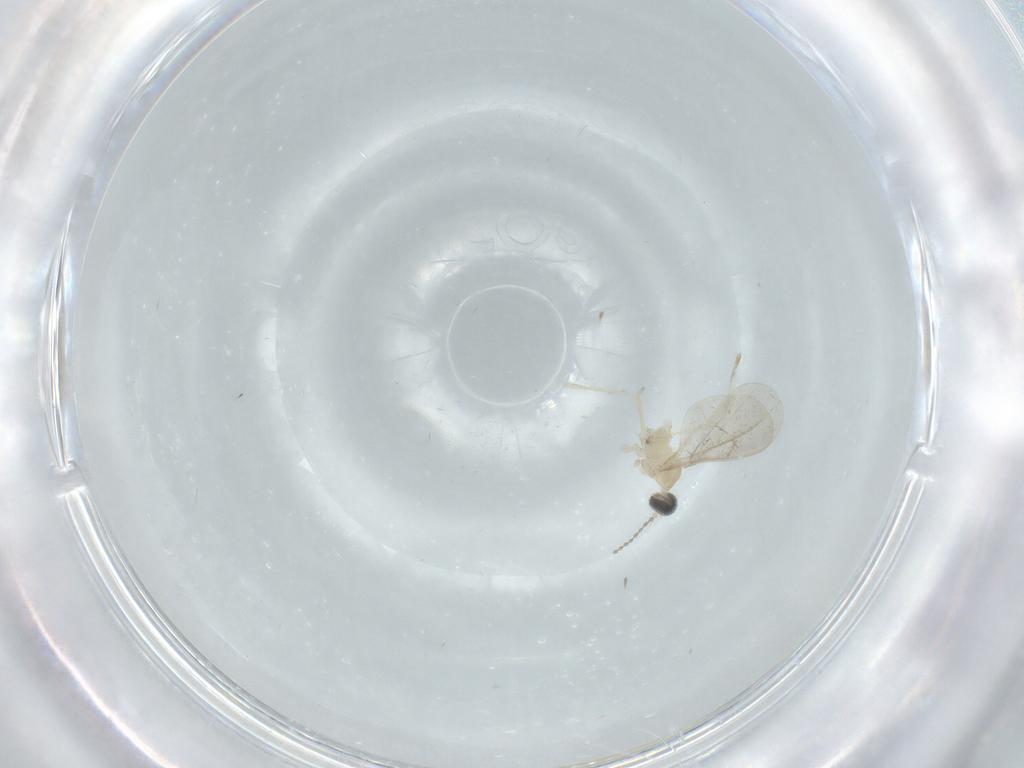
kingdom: Animalia
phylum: Arthropoda
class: Insecta
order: Diptera
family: Cecidomyiidae
